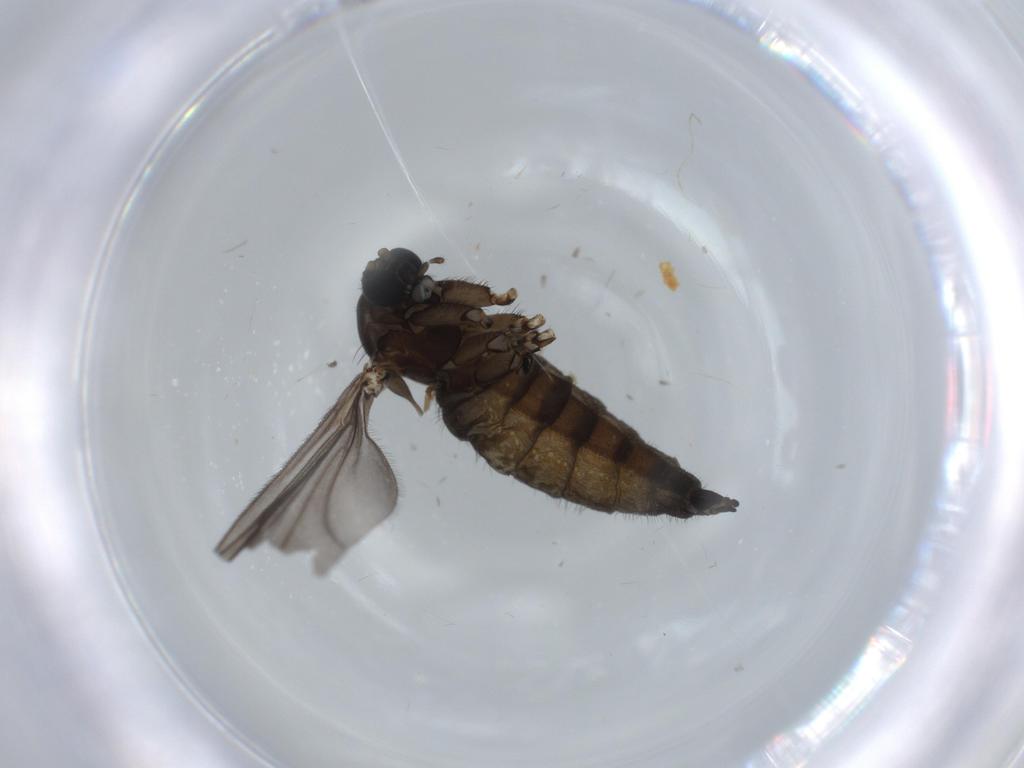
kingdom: Animalia
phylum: Arthropoda
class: Insecta
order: Diptera
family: Sciaridae
